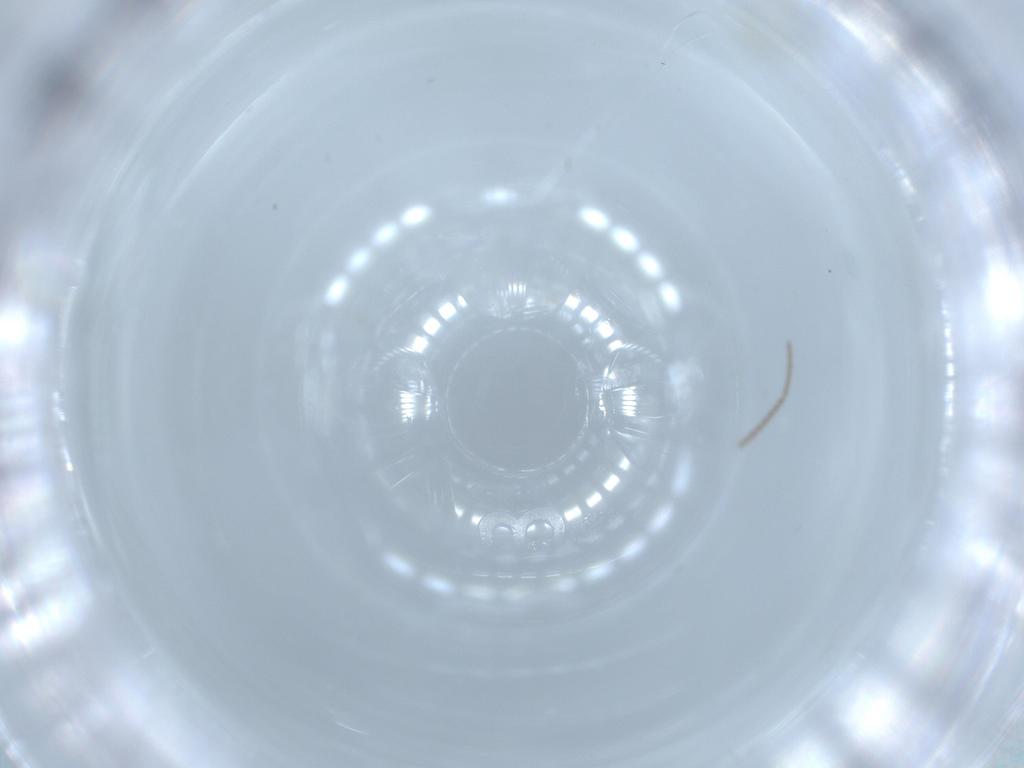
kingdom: Animalia
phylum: Arthropoda
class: Insecta
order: Lepidoptera
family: Tineidae
